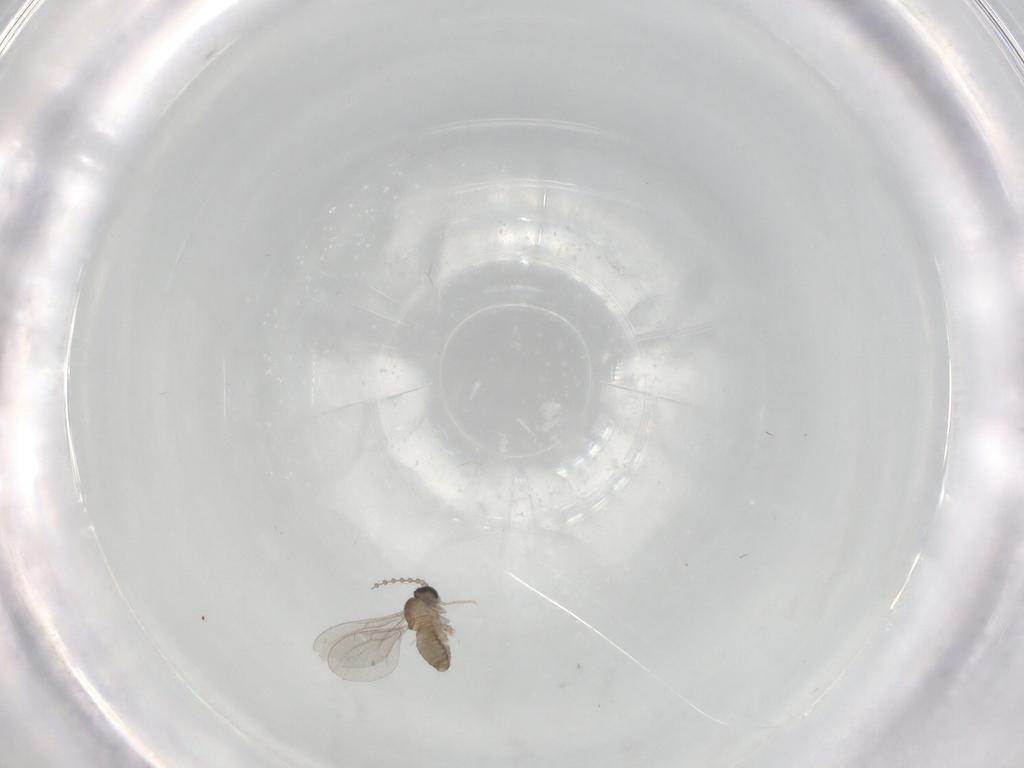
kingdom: Animalia
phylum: Arthropoda
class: Insecta
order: Diptera
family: Cecidomyiidae
